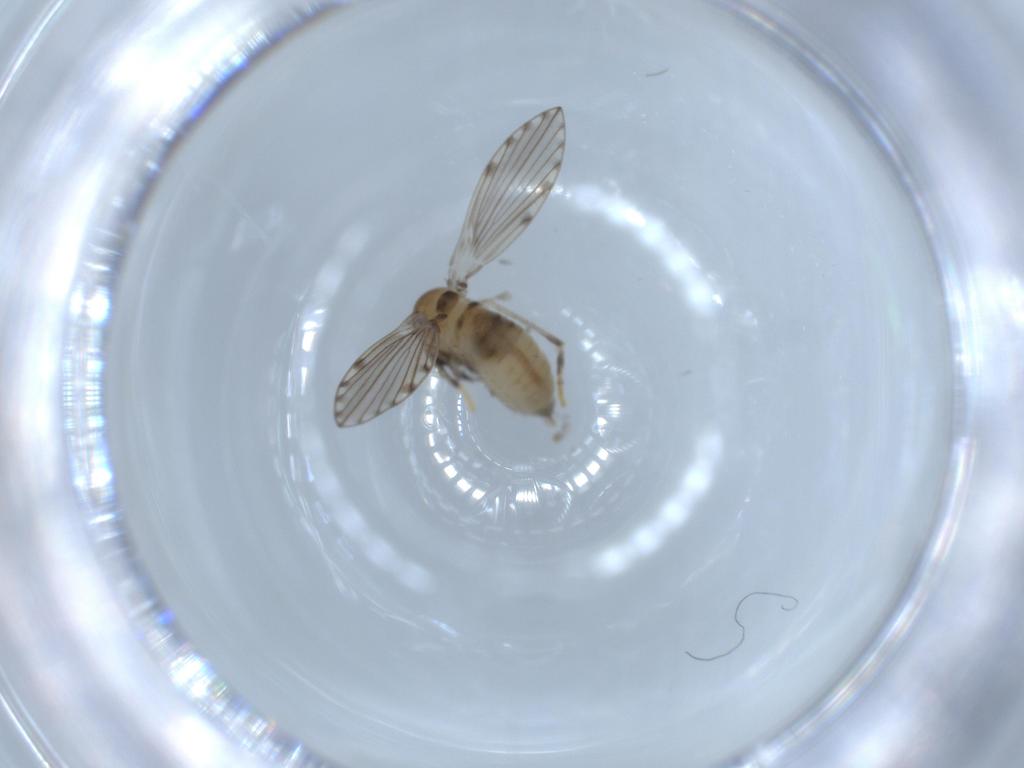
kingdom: Animalia
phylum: Arthropoda
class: Insecta
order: Diptera
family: Psychodidae
